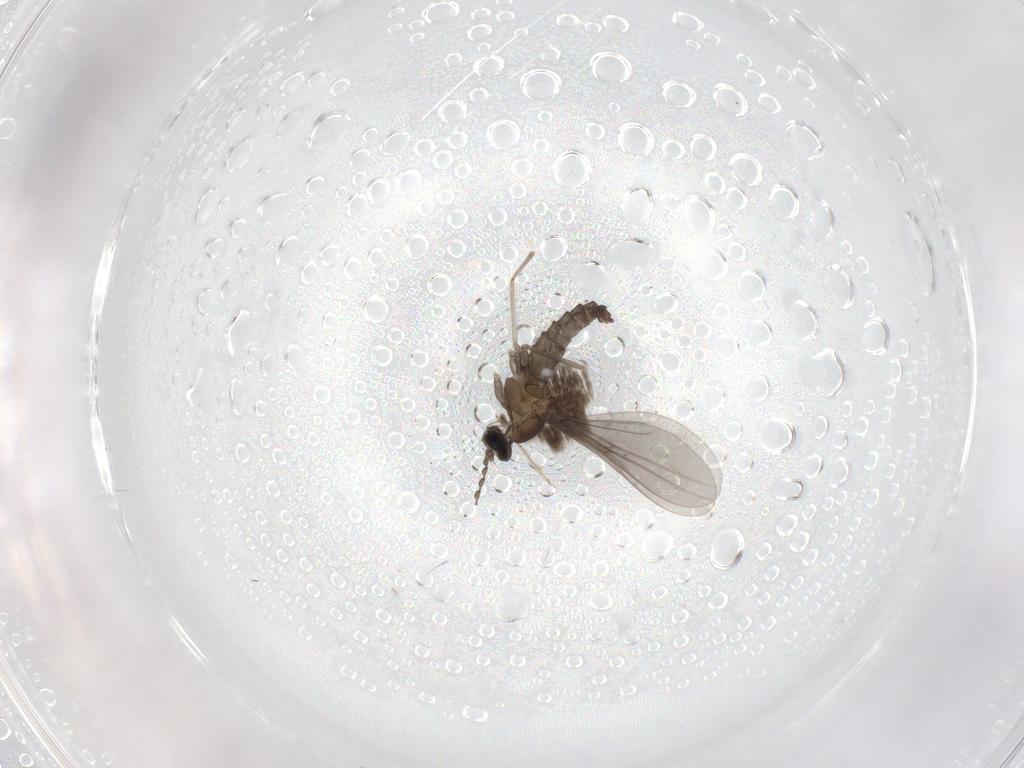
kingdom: Animalia
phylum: Arthropoda
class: Insecta
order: Diptera
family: Cecidomyiidae
